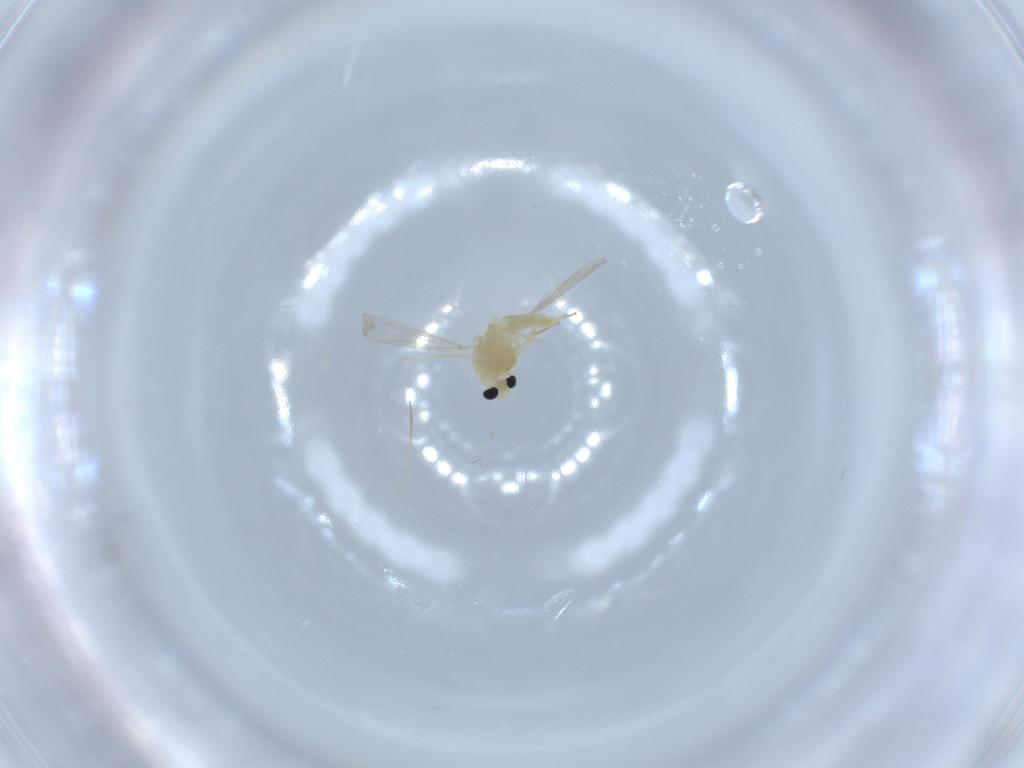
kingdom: Animalia
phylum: Arthropoda
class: Insecta
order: Diptera
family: Chironomidae
